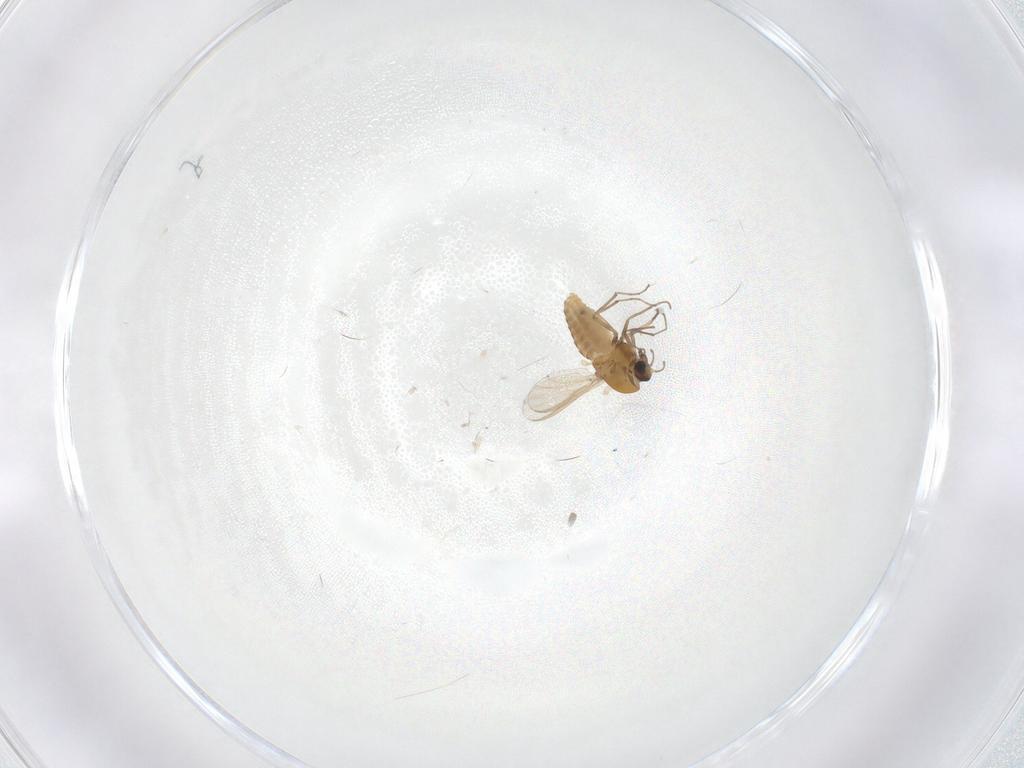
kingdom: Animalia
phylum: Arthropoda
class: Insecta
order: Diptera
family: Chironomidae
